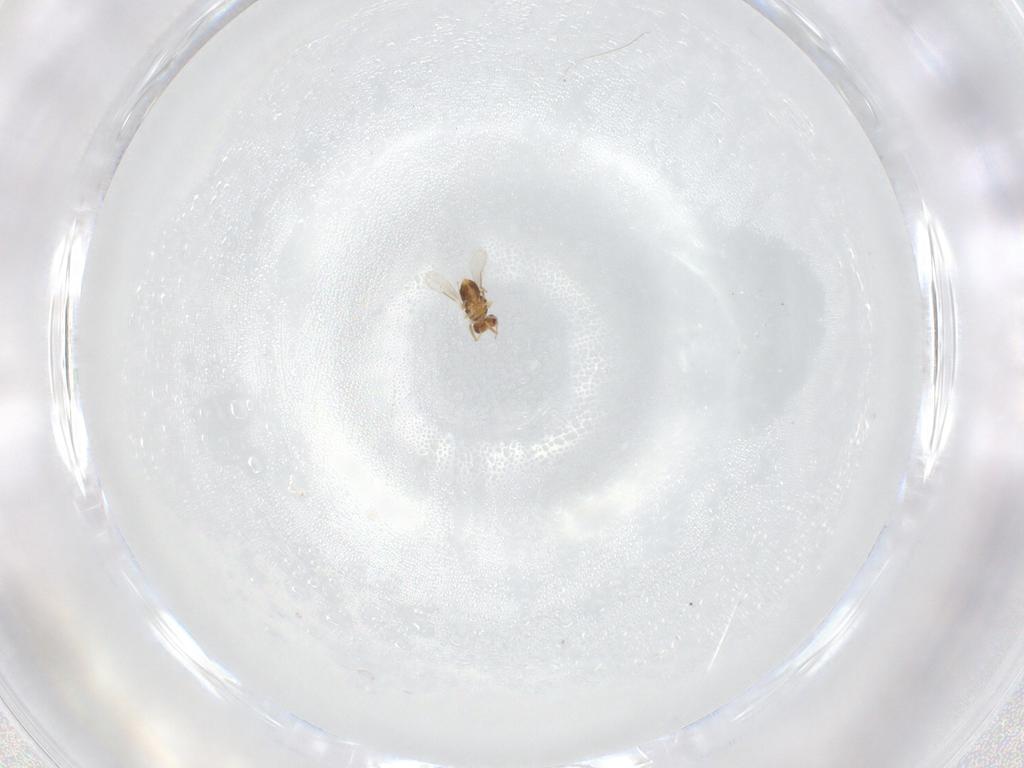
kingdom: Animalia
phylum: Arthropoda
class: Insecta
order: Hymenoptera
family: Aphelinidae
